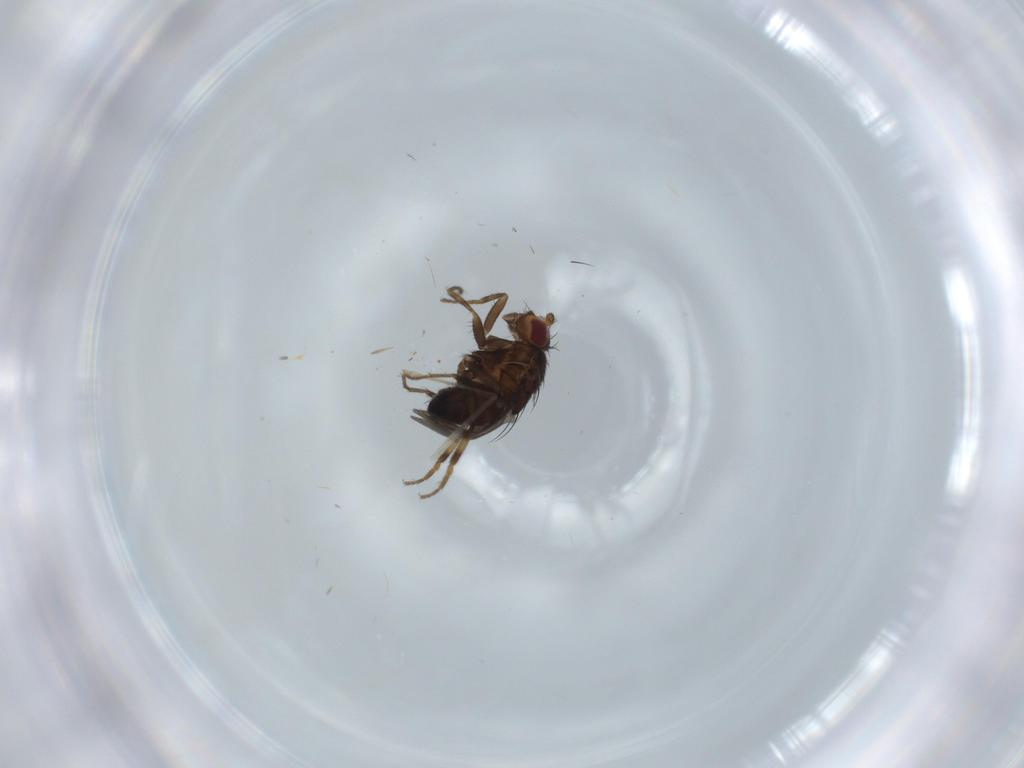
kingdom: Animalia
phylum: Arthropoda
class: Insecta
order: Diptera
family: Sphaeroceridae
